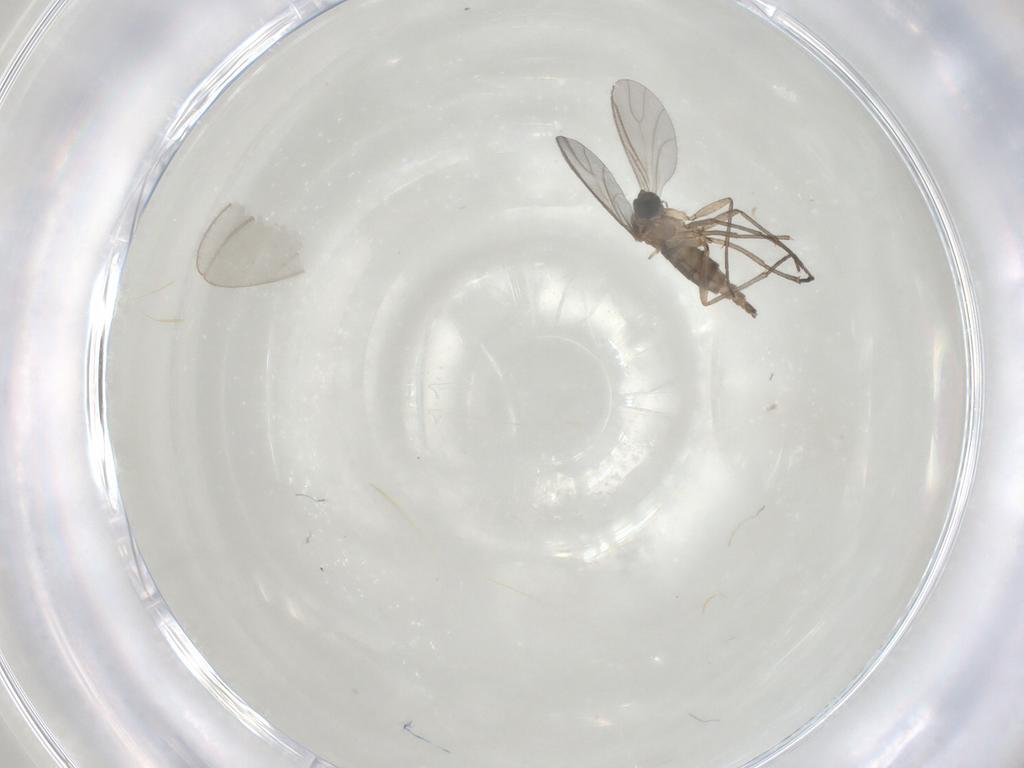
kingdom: Animalia
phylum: Arthropoda
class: Insecta
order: Diptera
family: Sciaridae
